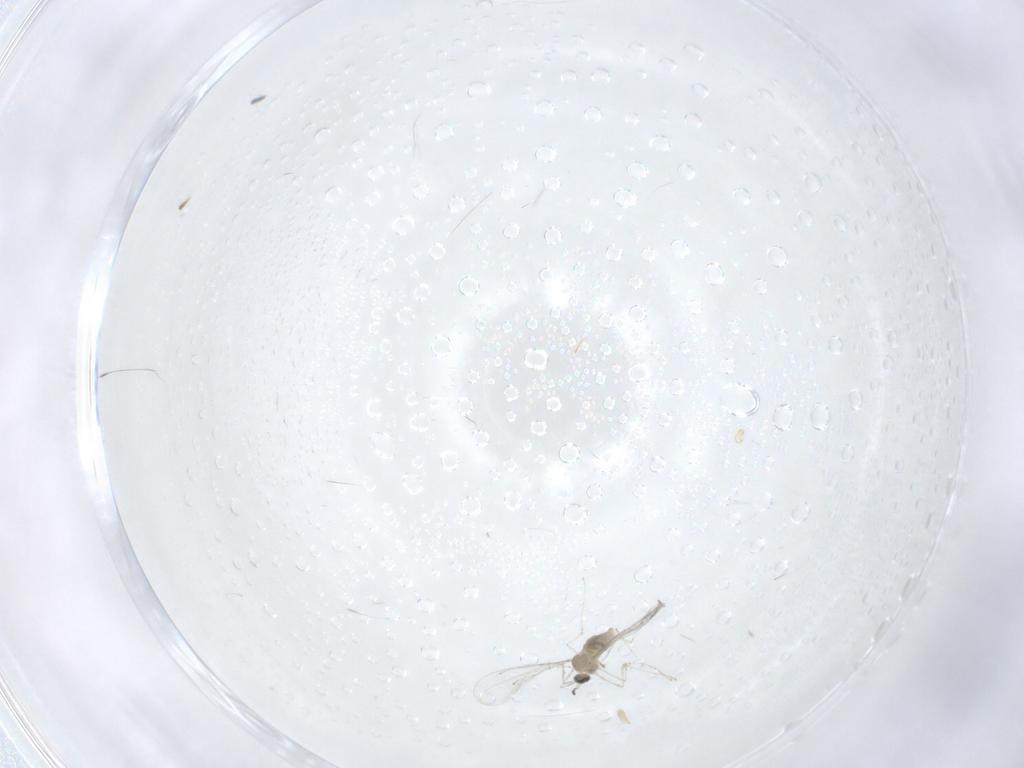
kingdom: Animalia
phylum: Arthropoda
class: Insecta
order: Diptera
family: Cecidomyiidae
